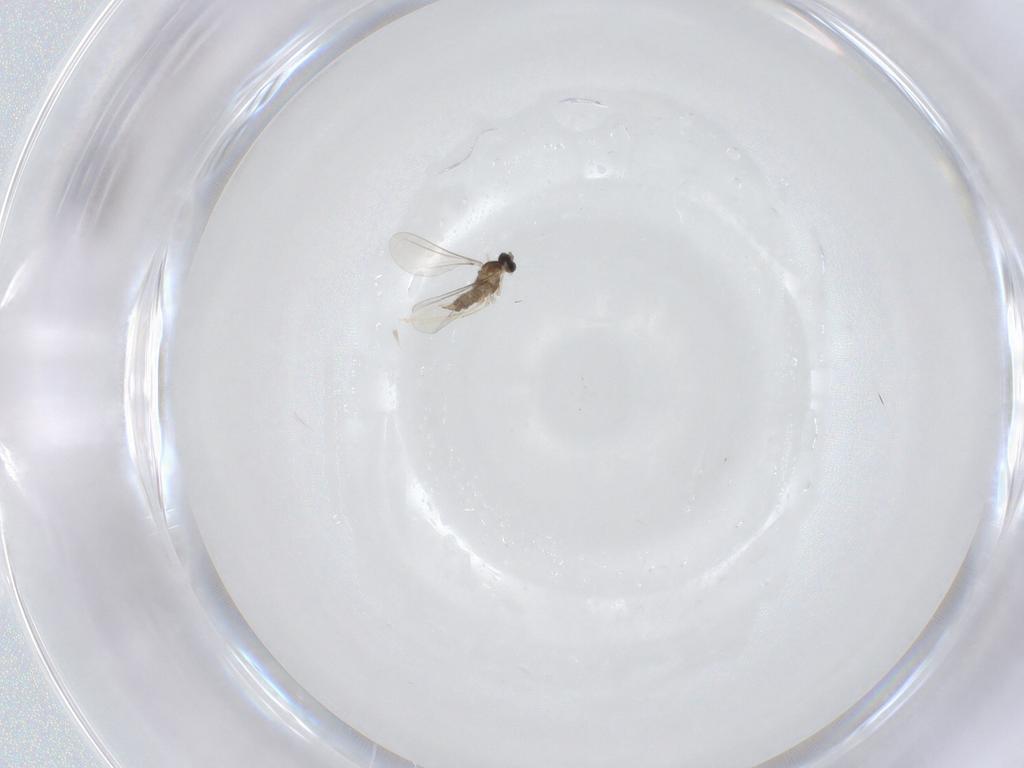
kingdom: Animalia
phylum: Arthropoda
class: Insecta
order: Diptera
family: Cecidomyiidae
